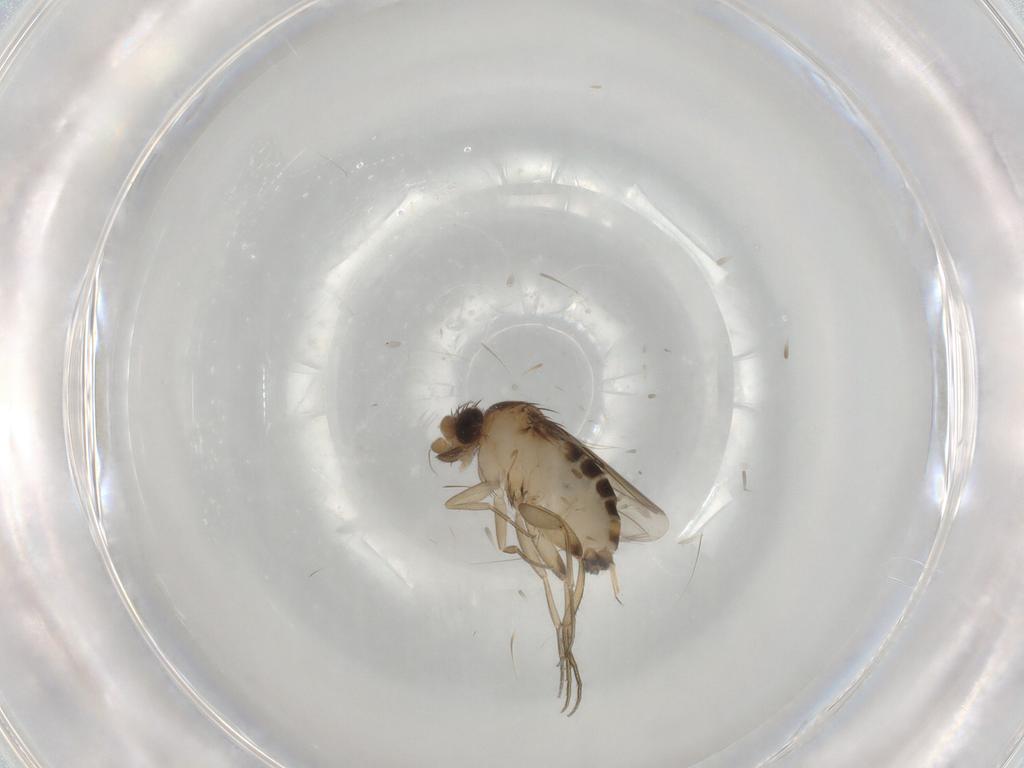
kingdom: Animalia
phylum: Arthropoda
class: Insecta
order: Diptera
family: Phoridae
